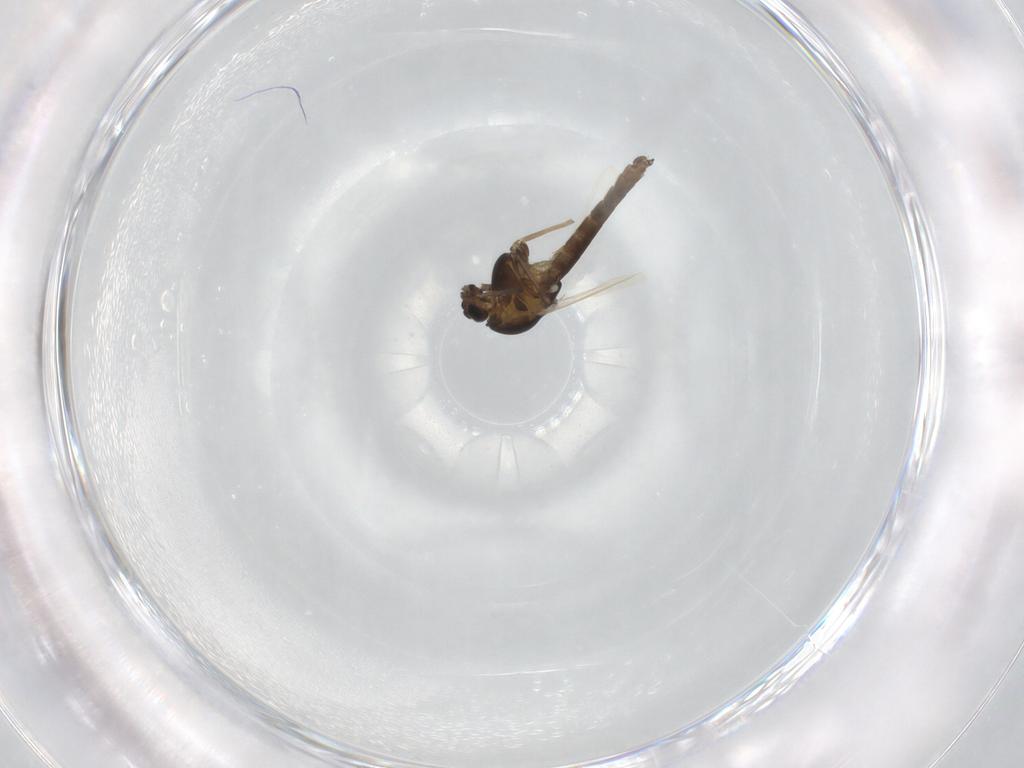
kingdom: Animalia
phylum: Arthropoda
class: Insecta
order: Diptera
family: Chironomidae
